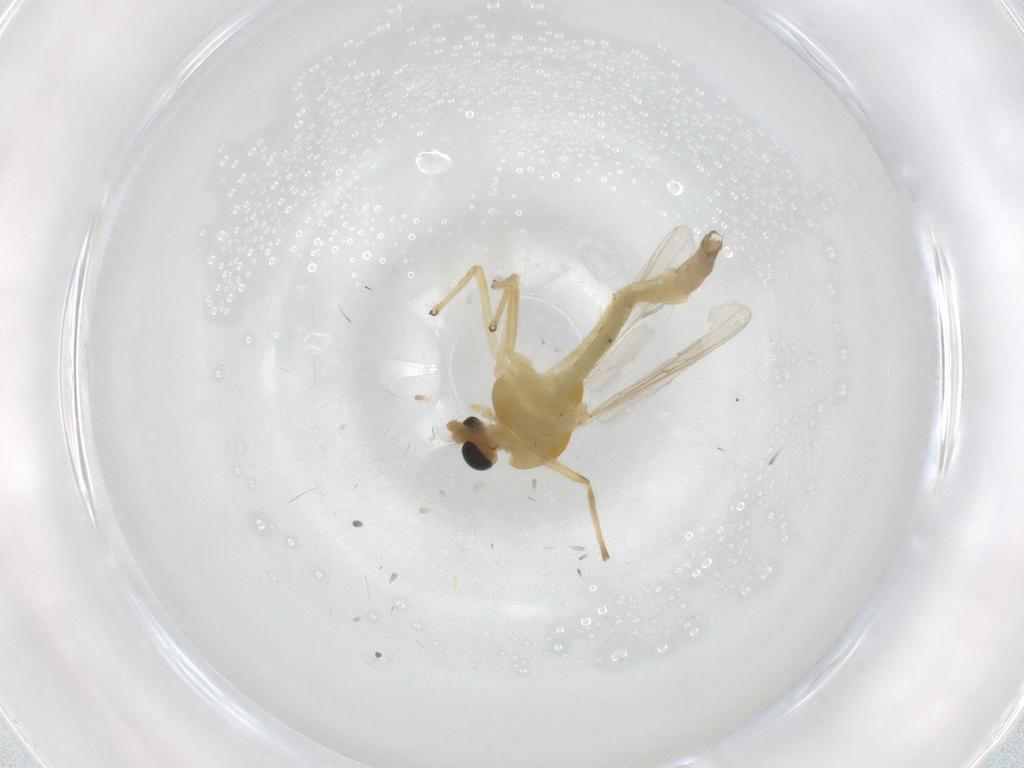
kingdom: Animalia
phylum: Arthropoda
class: Insecta
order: Diptera
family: Chironomidae
